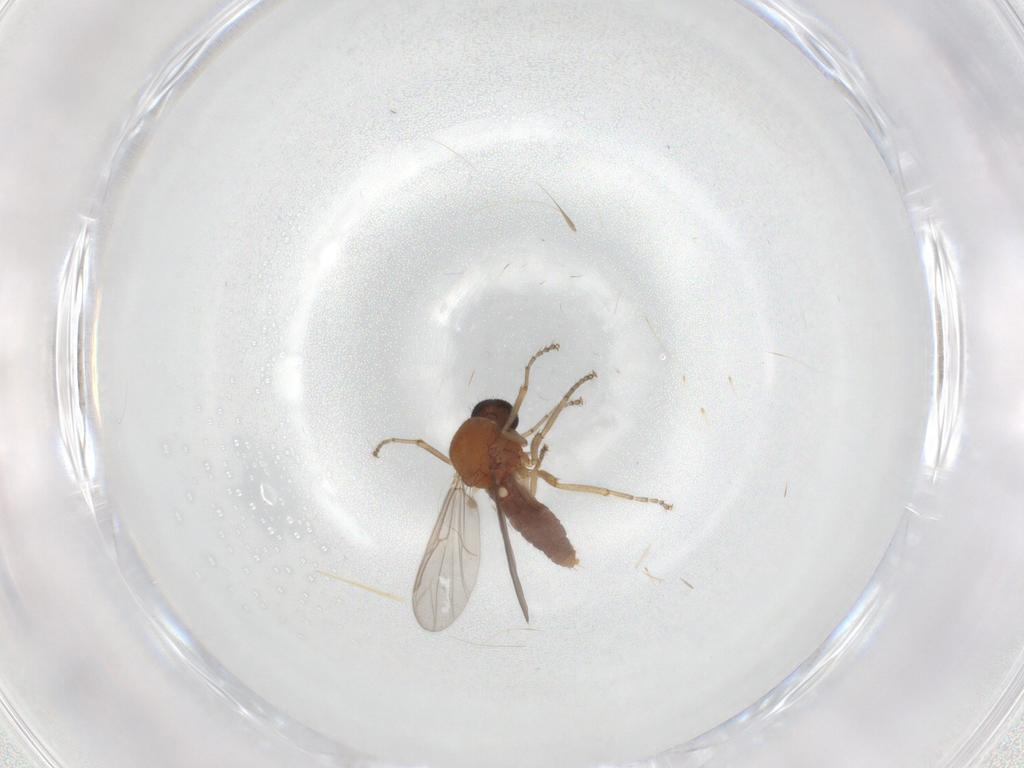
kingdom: Animalia
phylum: Arthropoda
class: Insecta
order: Diptera
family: Ceratopogonidae
